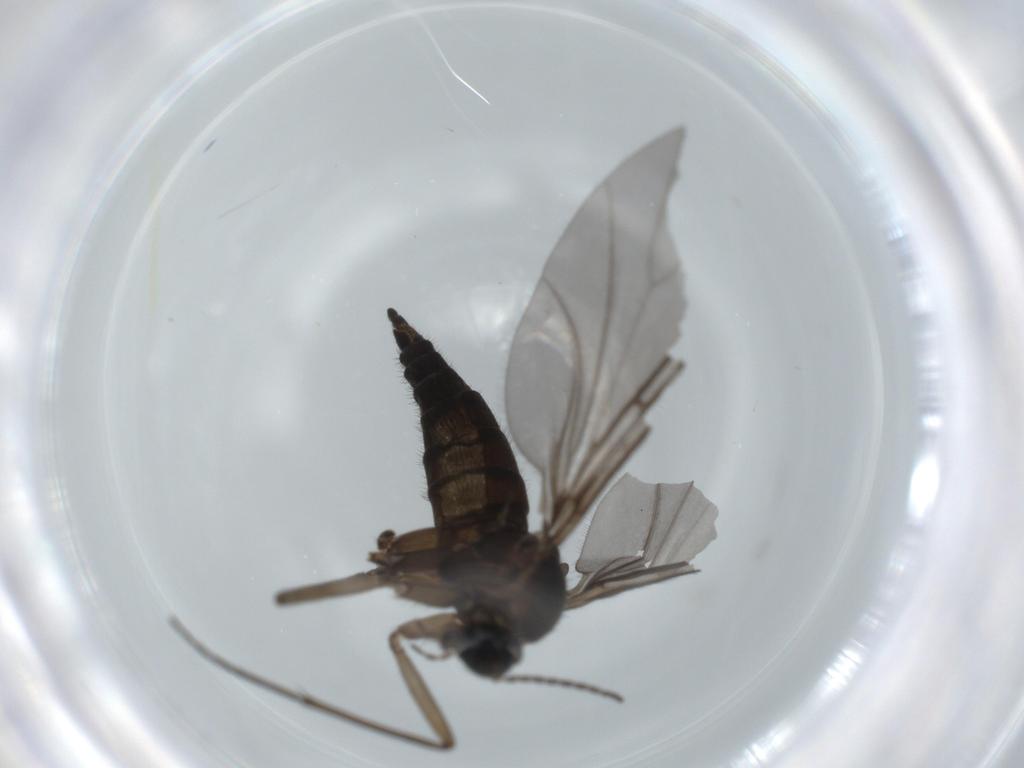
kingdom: Animalia
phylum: Arthropoda
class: Insecta
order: Diptera
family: Sciaridae
